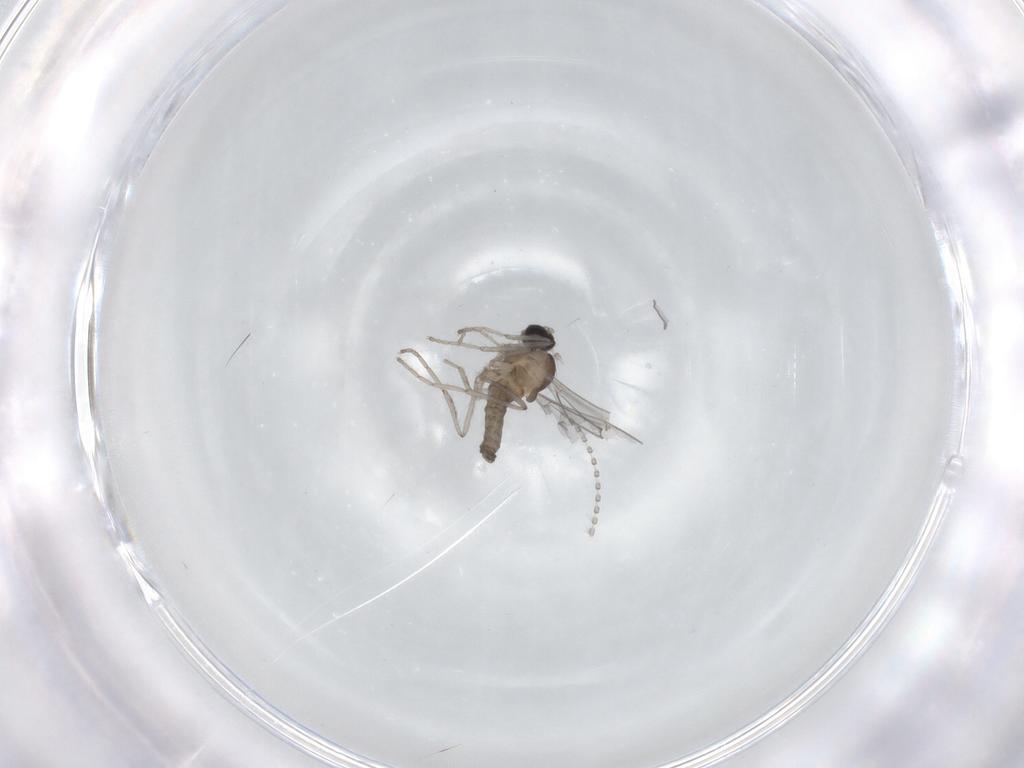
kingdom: Animalia
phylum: Arthropoda
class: Insecta
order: Diptera
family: Cecidomyiidae
